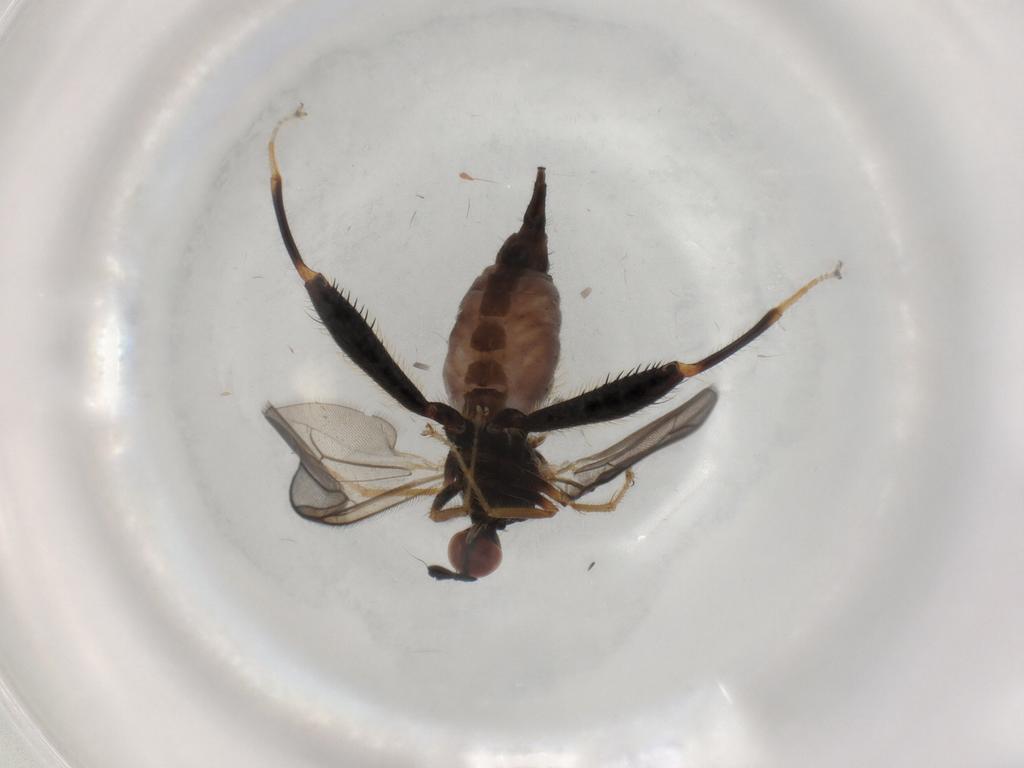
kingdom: Animalia
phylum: Arthropoda
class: Insecta
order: Diptera
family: Hybotidae
